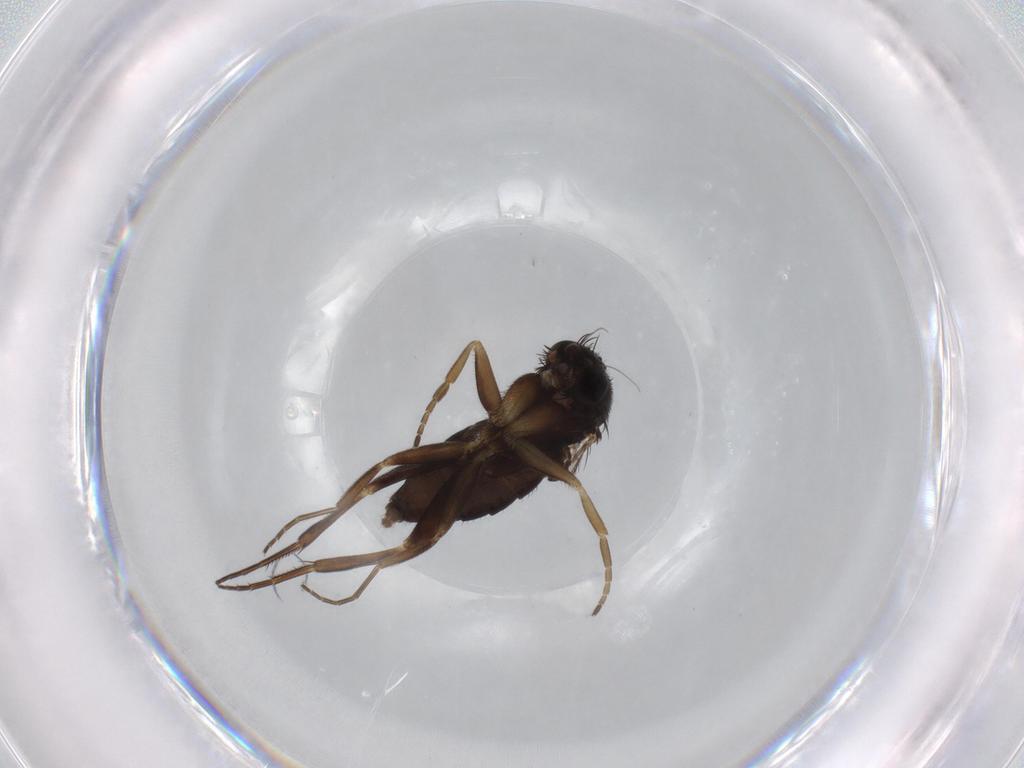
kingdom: Animalia
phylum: Arthropoda
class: Insecta
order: Diptera
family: Phoridae
